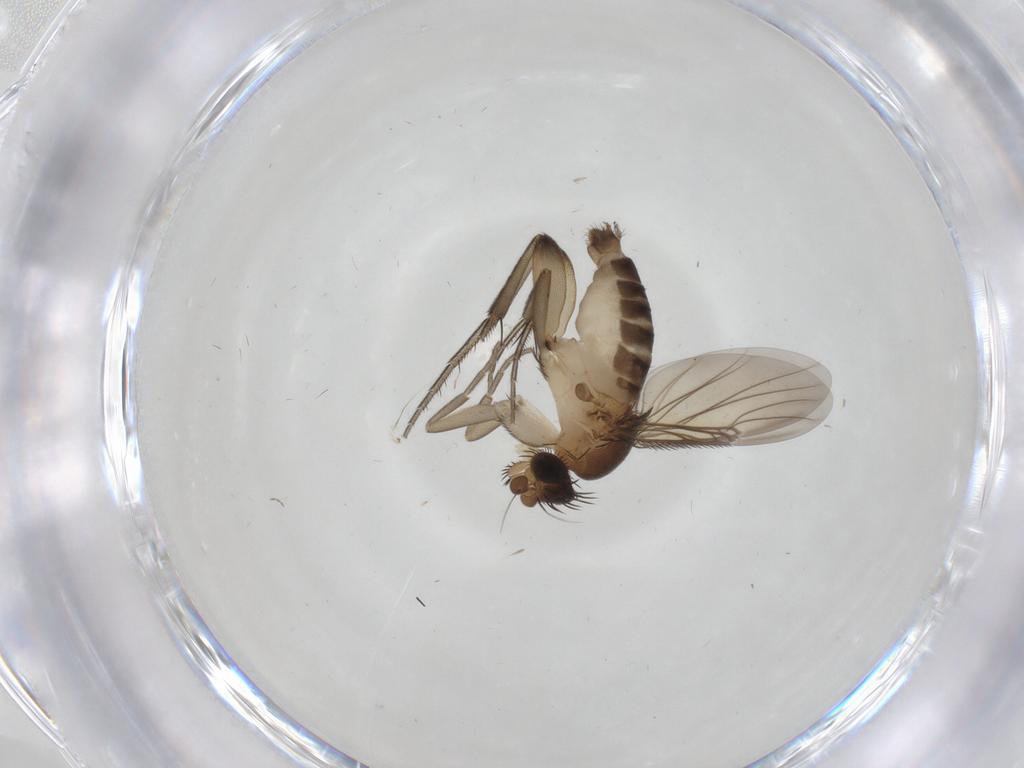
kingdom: Animalia
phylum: Arthropoda
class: Insecta
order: Diptera
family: Phoridae
